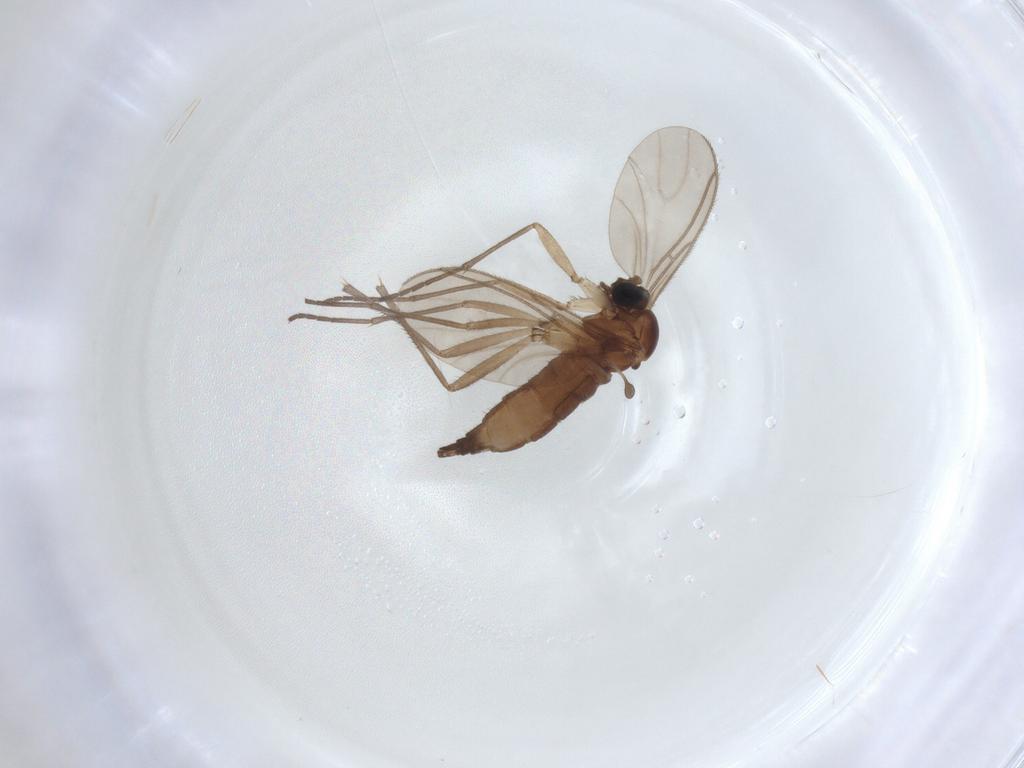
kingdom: Animalia
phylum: Arthropoda
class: Insecta
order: Diptera
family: Sciaridae
